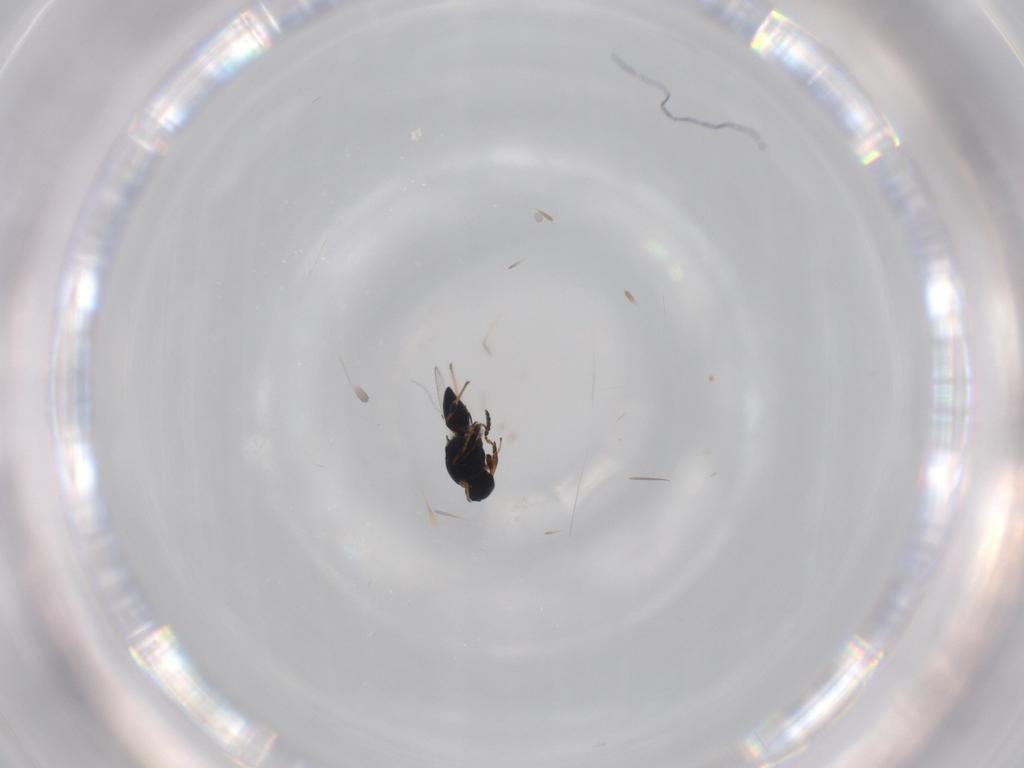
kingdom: Animalia
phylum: Arthropoda
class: Insecta
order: Hymenoptera
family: Platygastridae
